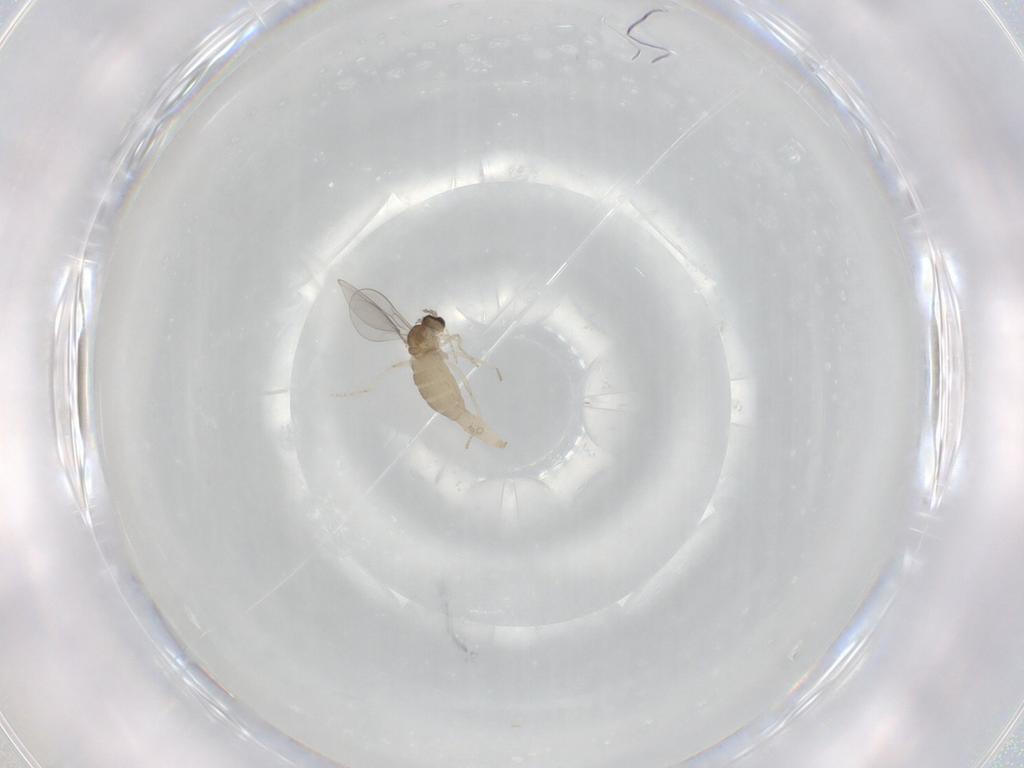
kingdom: Animalia
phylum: Arthropoda
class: Insecta
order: Diptera
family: Cecidomyiidae
